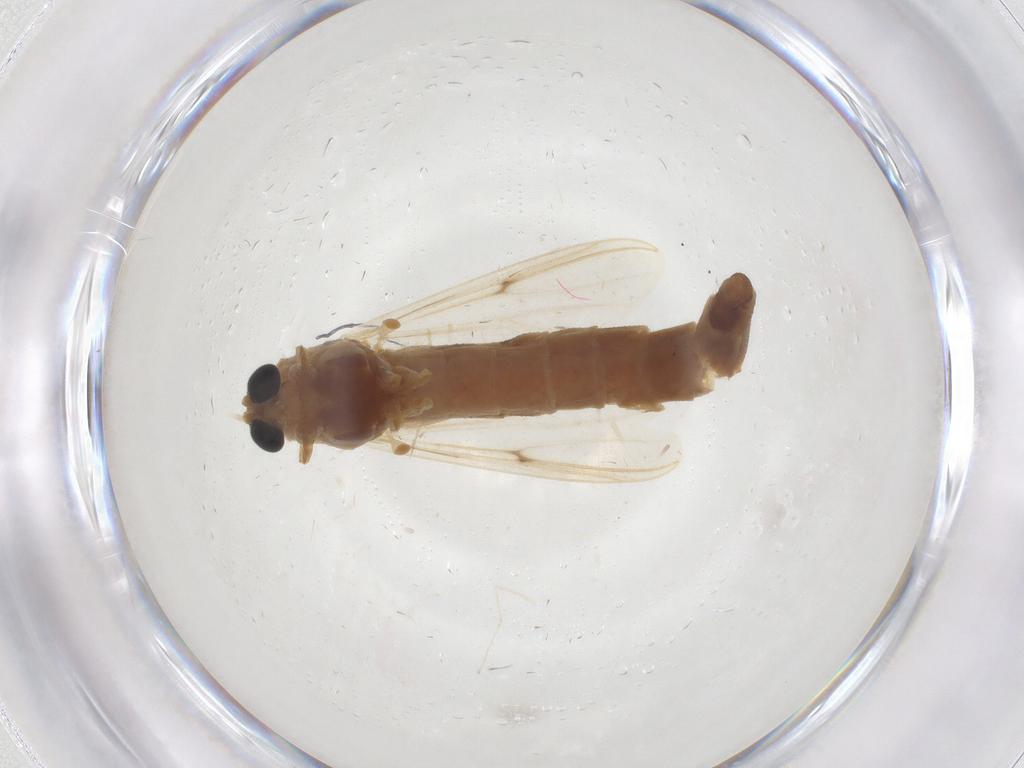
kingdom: Animalia
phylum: Arthropoda
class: Insecta
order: Diptera
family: Chironomidae
